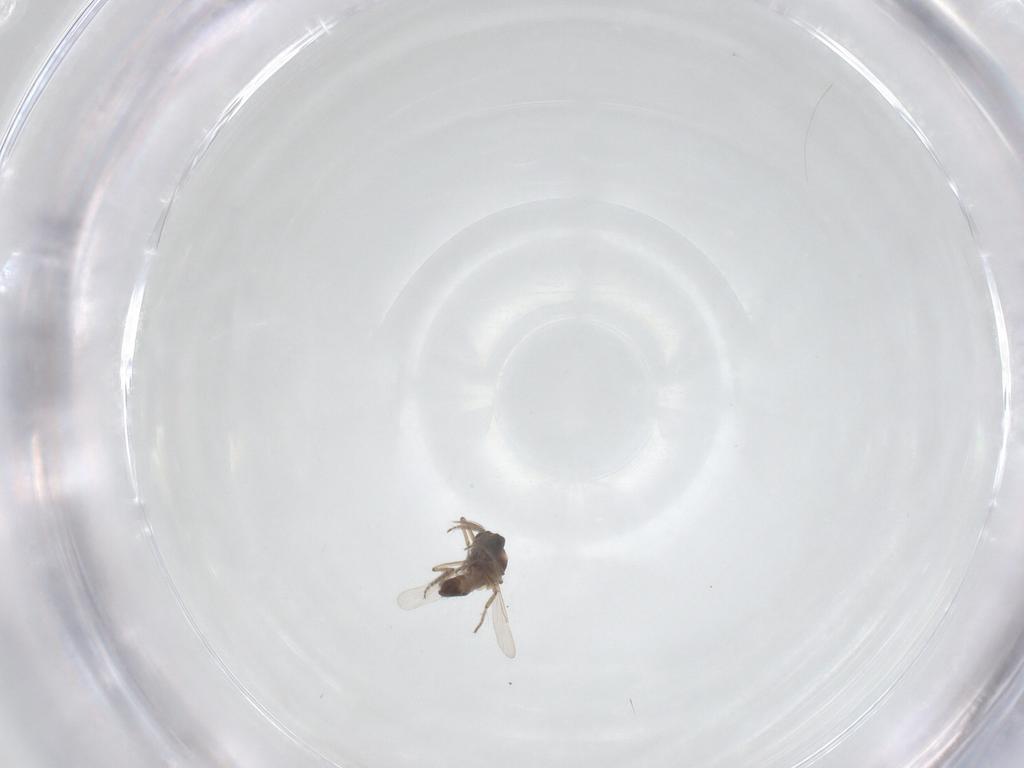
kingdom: Animalia
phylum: Arthropoda
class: Insecta
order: Diptera
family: Ceratopogonidae
